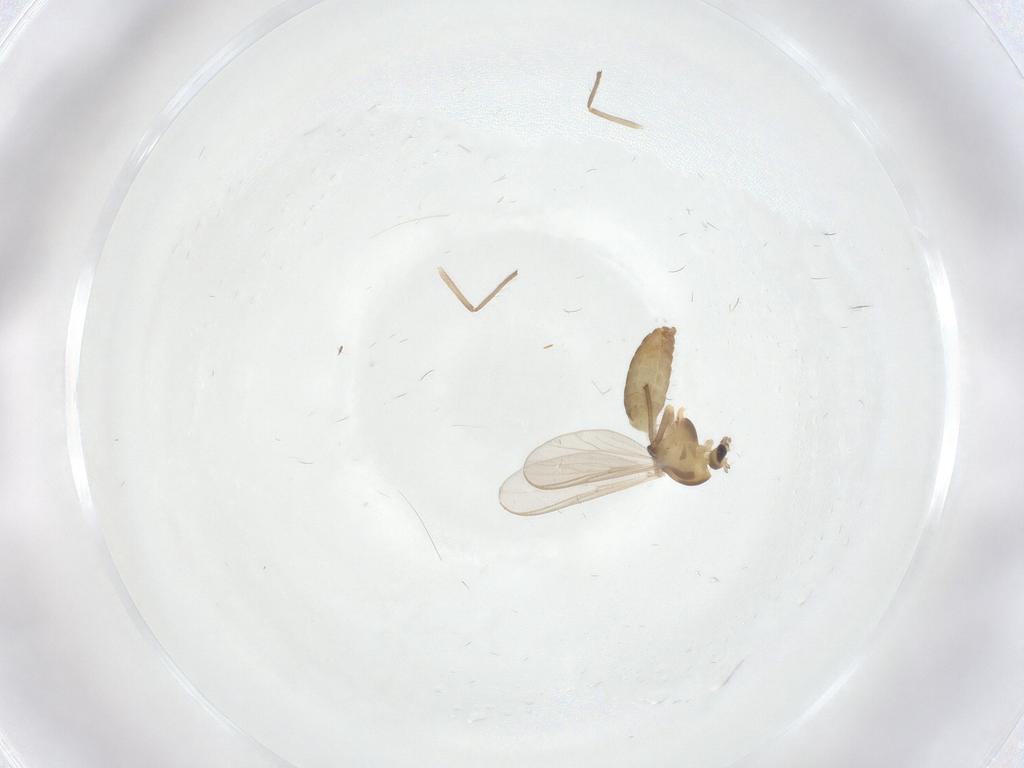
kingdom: Animalia
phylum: Arthropoda
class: Insecta
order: Diptera
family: Chironomidae
